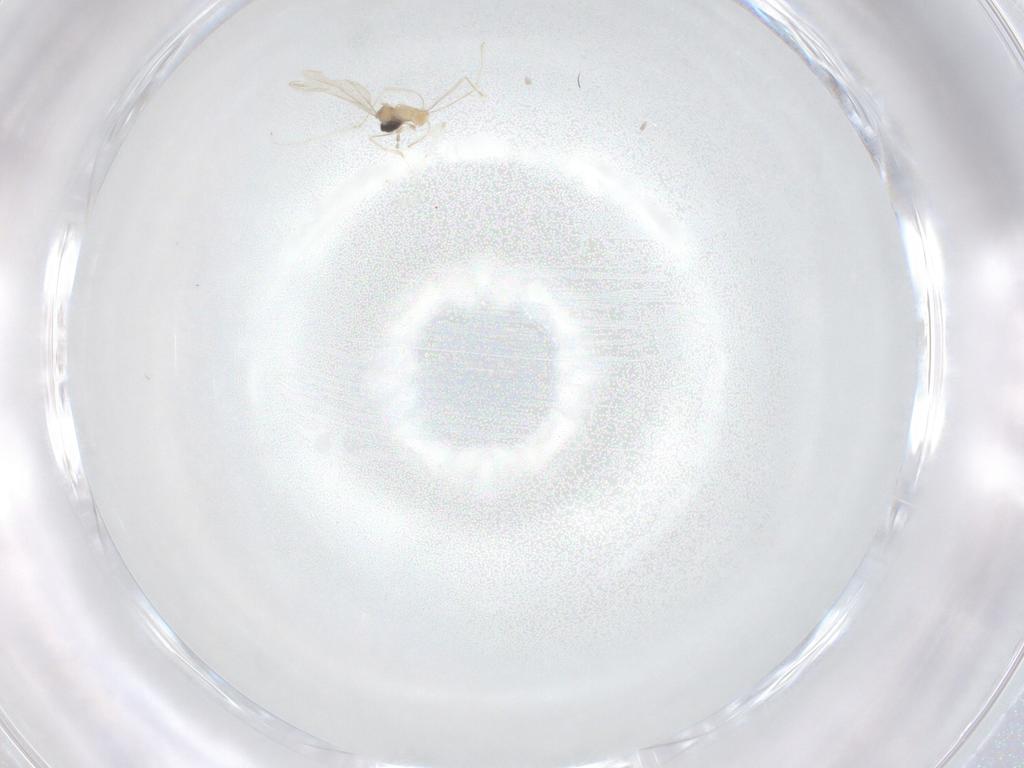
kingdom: Animalia
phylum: Arthropoda
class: Insecta
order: Diptera
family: Cecidomyiidae
